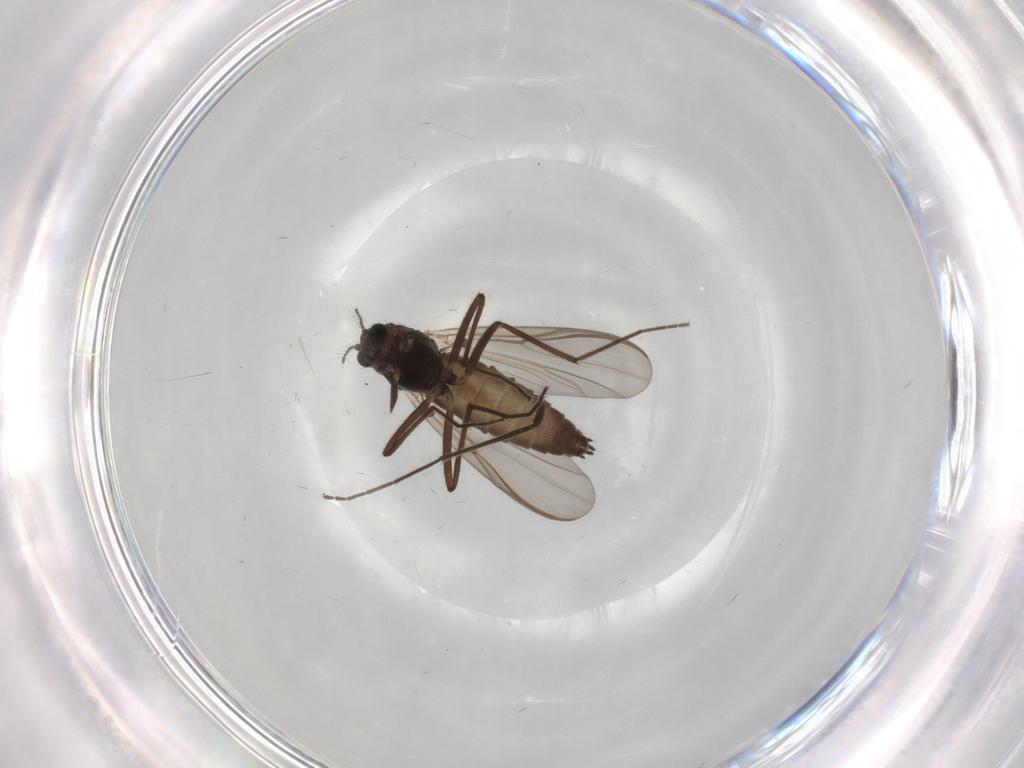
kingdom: Animalia
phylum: Arthropoda
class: Insecta
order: Diptera
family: Chironomidae
